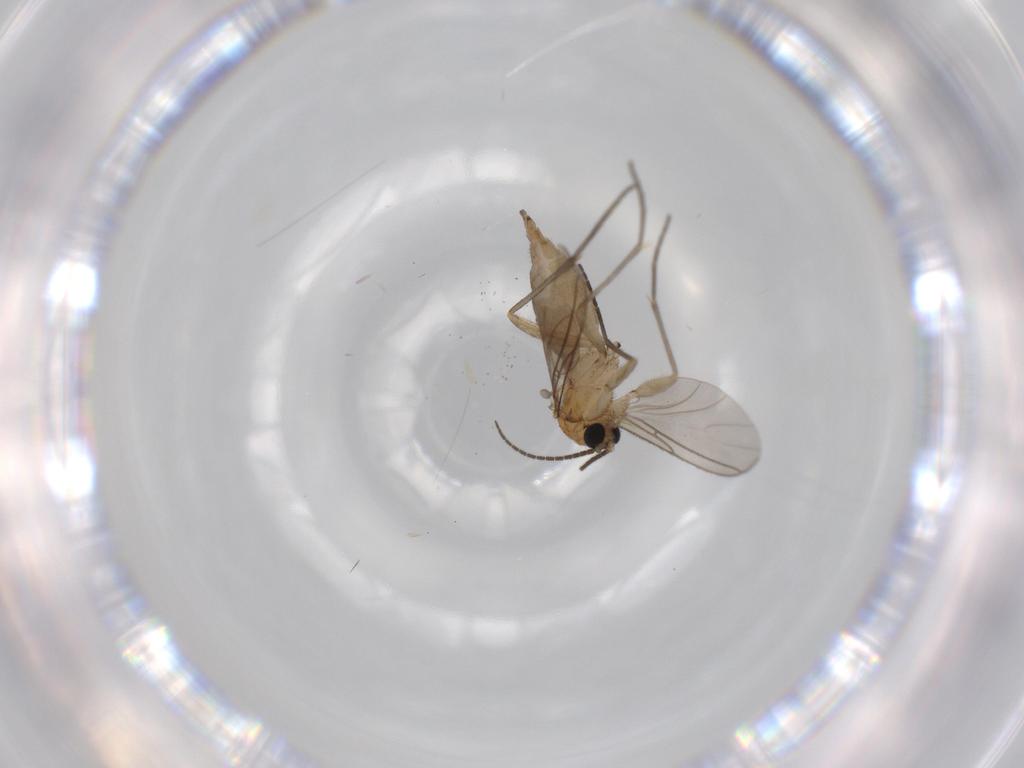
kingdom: Animalia
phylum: Arthropoda
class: Insecta
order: Diptera
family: Sciaridae
